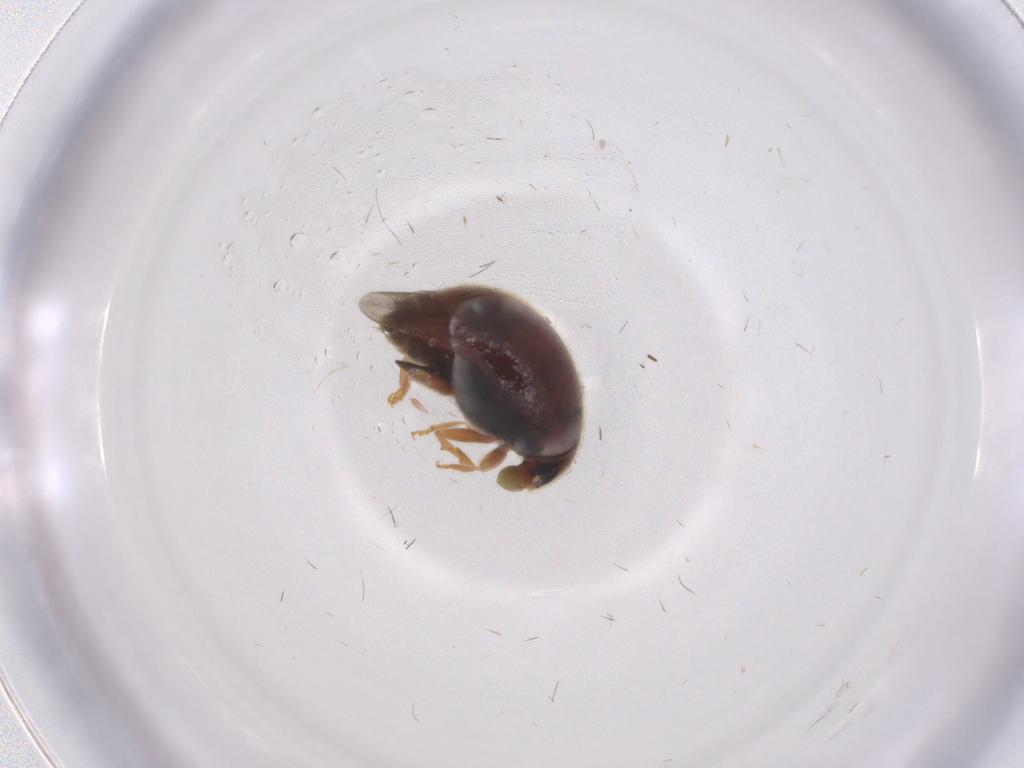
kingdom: Animalia
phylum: Arthropoda
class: Insecta
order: Coleoptera
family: Coccinellidae
